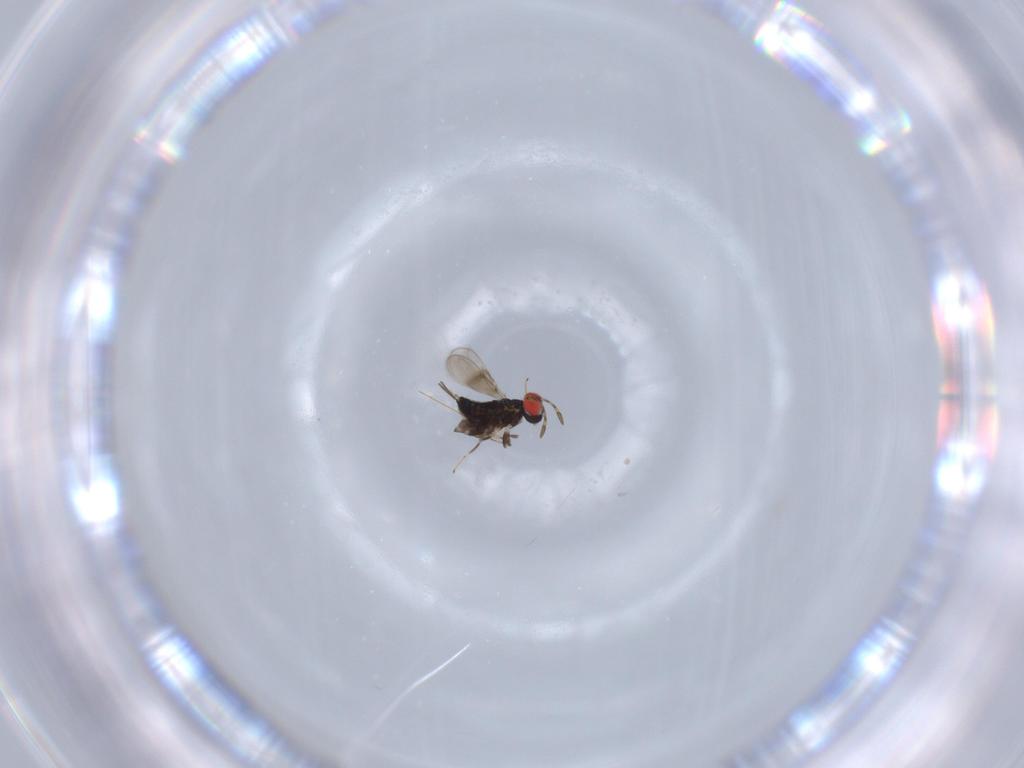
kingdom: Animalia
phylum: Arthropoda
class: Insecta
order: Hymenoptera
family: Azotidae
